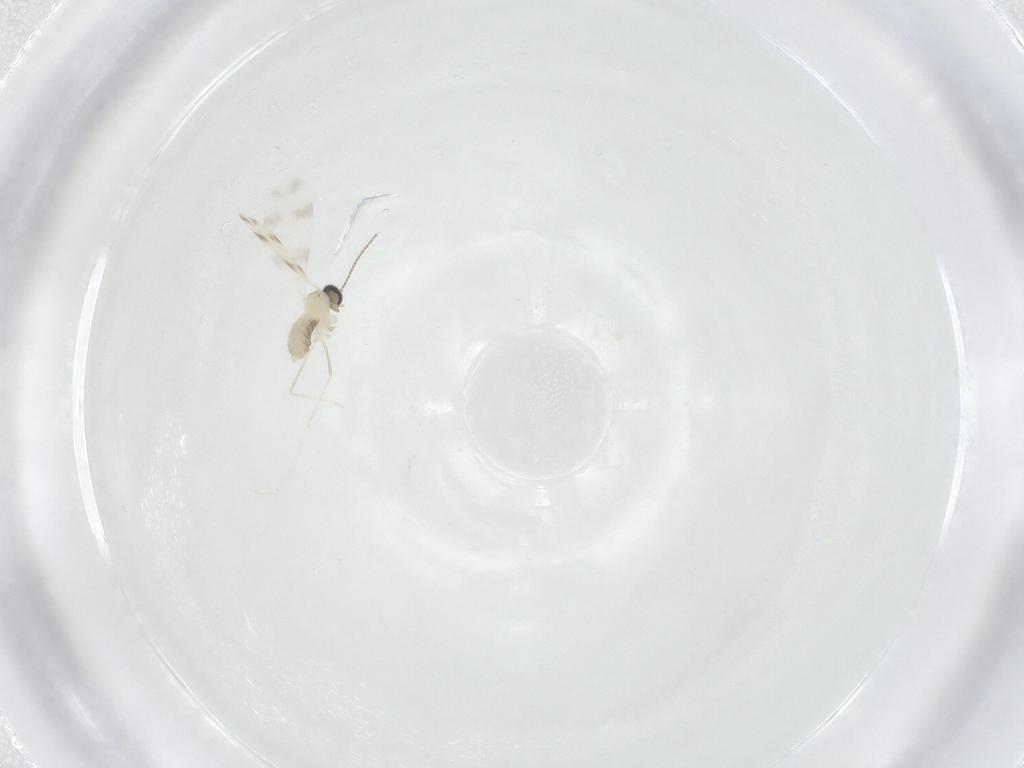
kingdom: Animalia
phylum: Arthropoda
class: Insecta
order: Diptera
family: Cecidomyiidae
